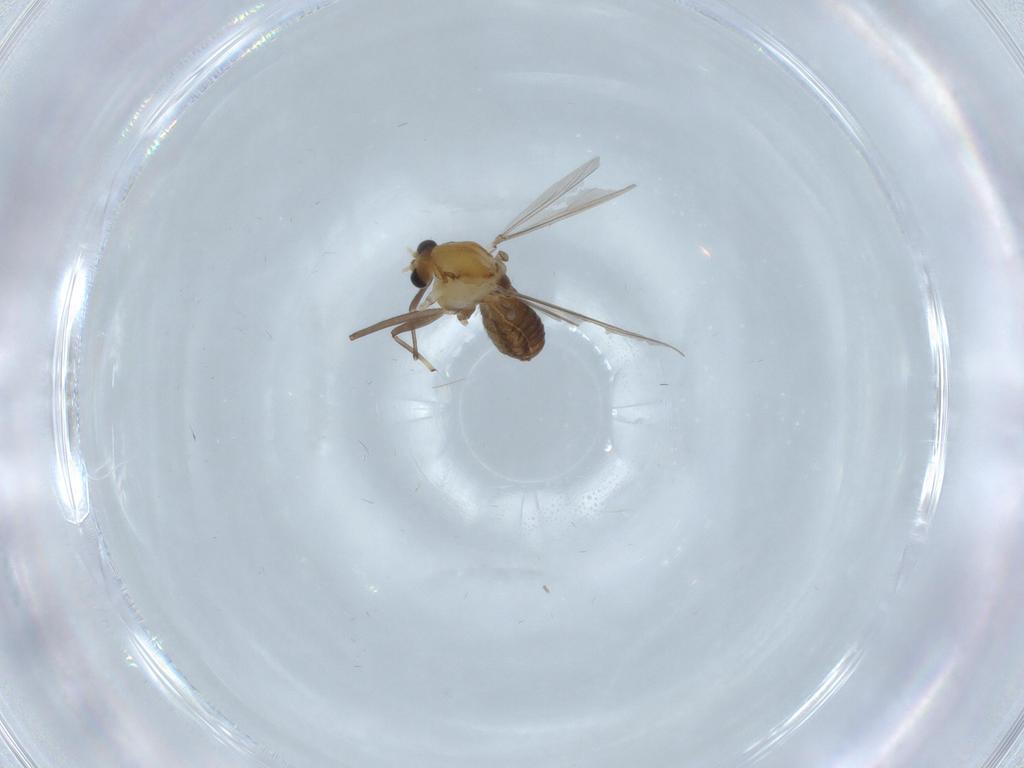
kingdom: Animalia
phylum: Arthropoda
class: Insecta
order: Diptera
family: Chironomidae
